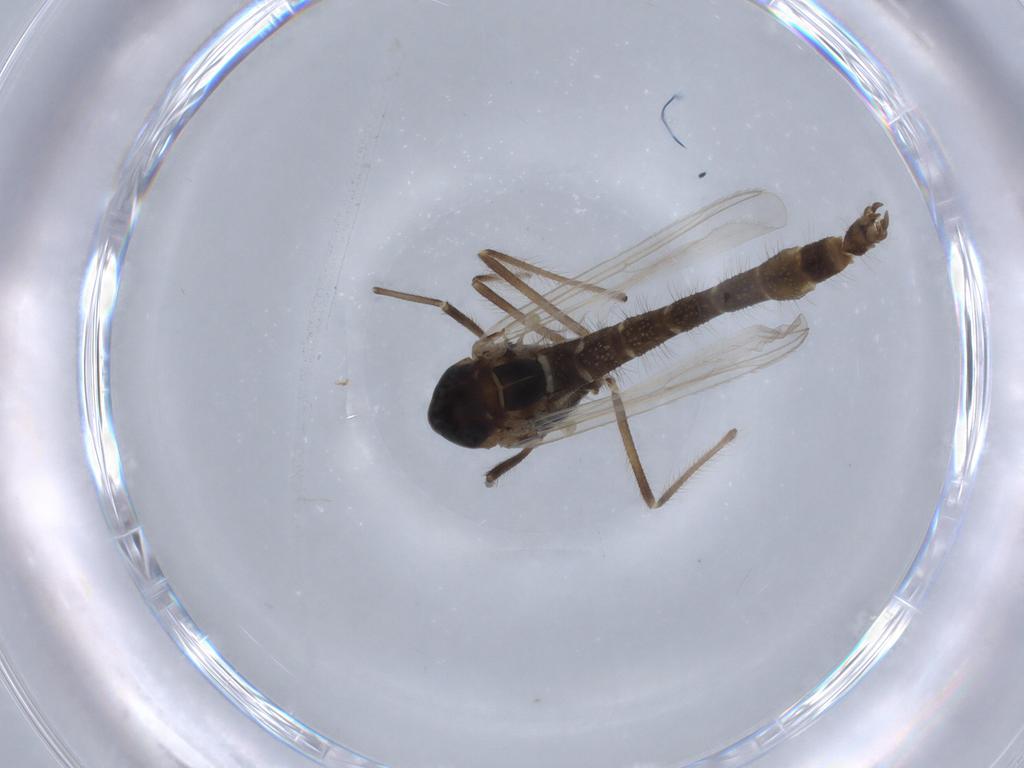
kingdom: Animalia
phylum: Arthropoda
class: Insecta
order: Diptera
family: Chironomidae
